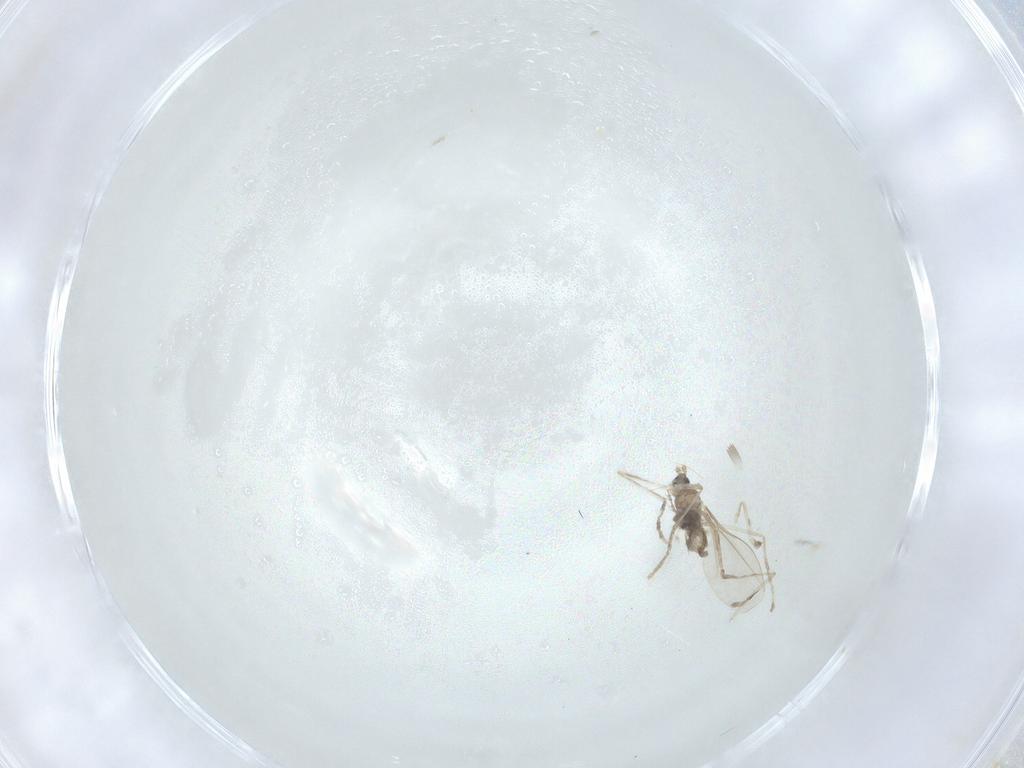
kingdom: Animalia
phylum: Arthropoda
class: Insecta
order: Diptera
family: Cecidomyiidae
